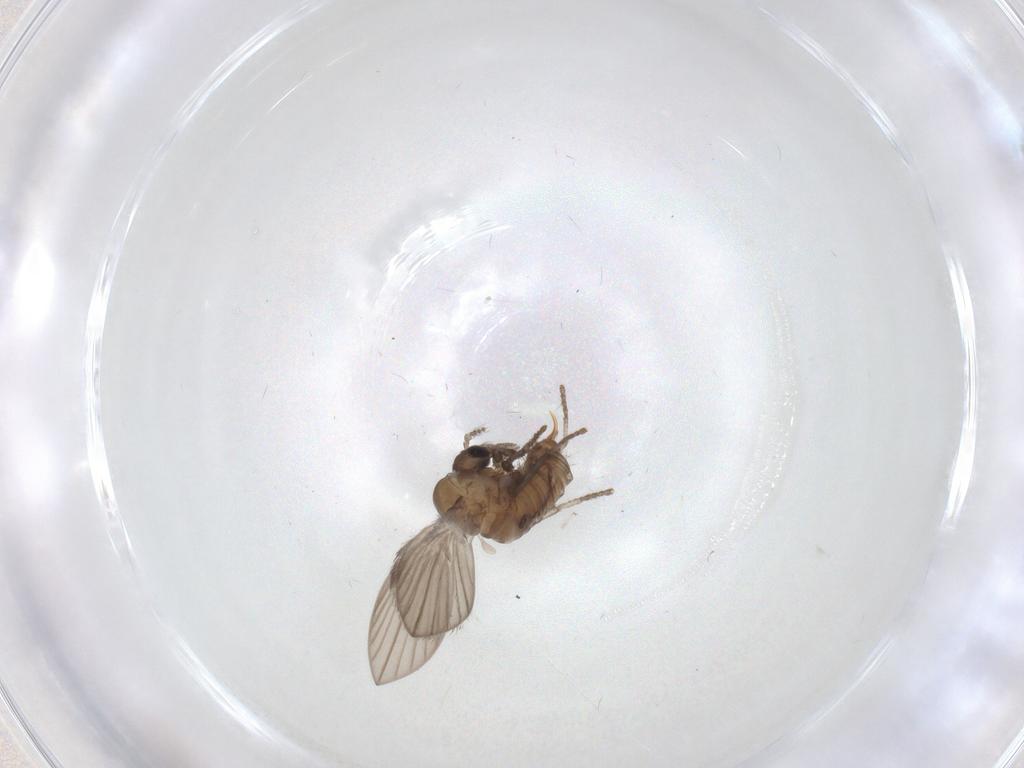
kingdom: Animalia
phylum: Arthropoda
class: Insecta
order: Diptera
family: Psychodidae
